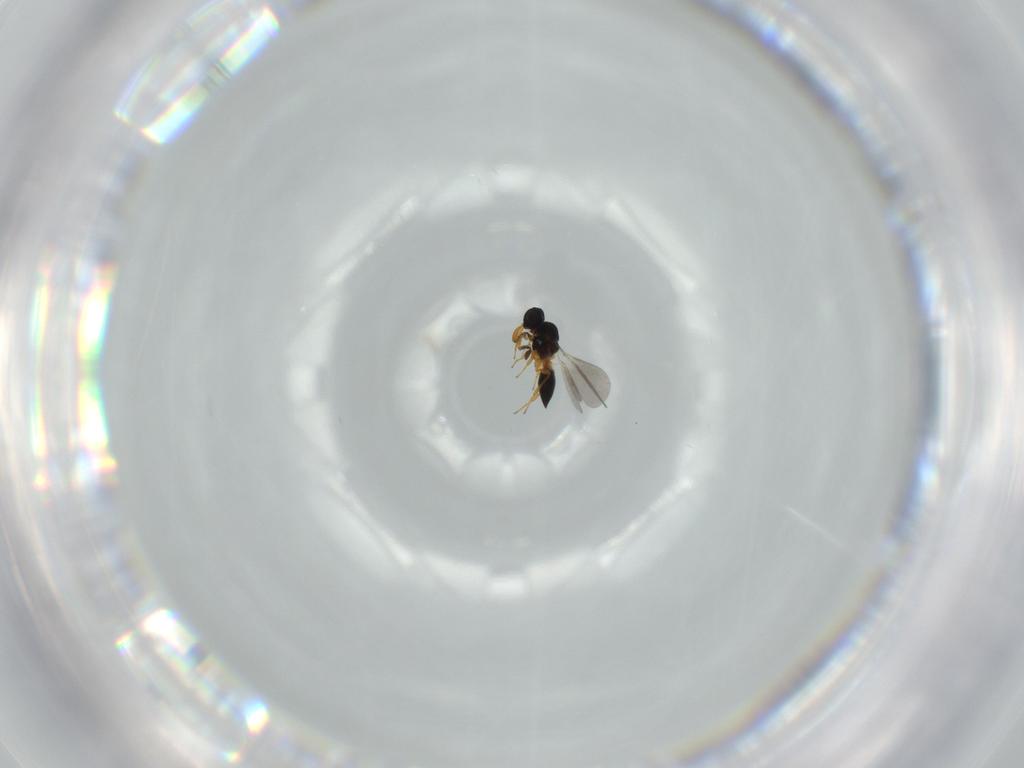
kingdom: Animalia
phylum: Arthropoda
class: Insecta
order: Hymenoptera
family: Platygastridae
